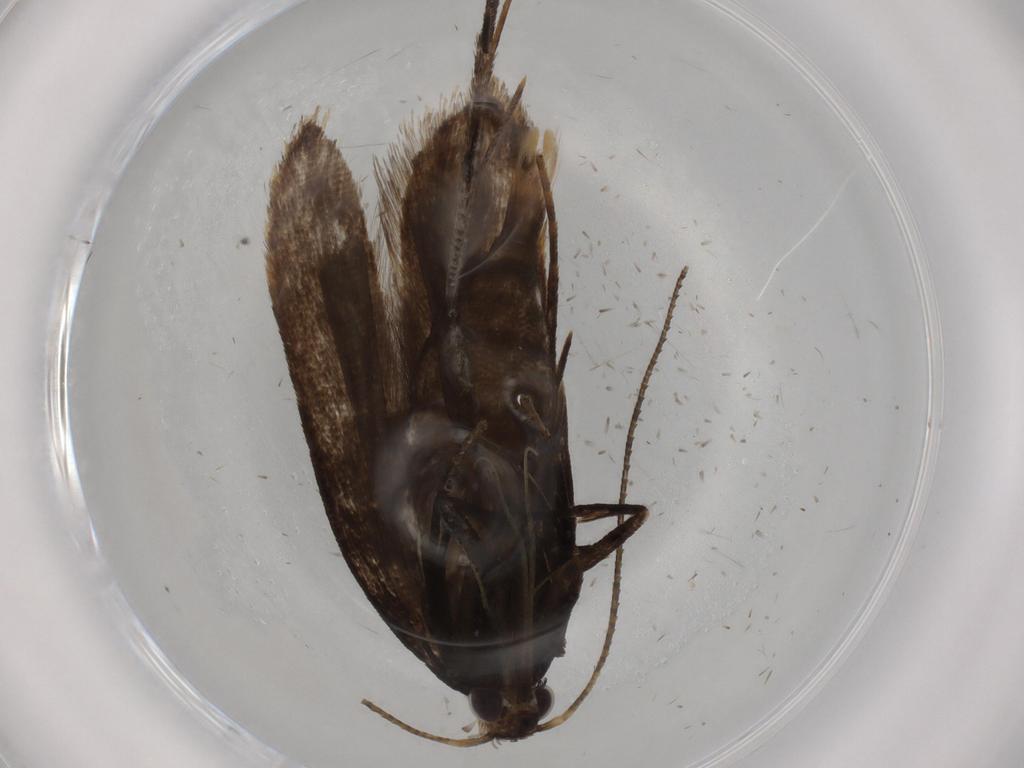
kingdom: Animalia
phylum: Arthropoda
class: Insecta
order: Lepidoptera
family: Gelechiidae
